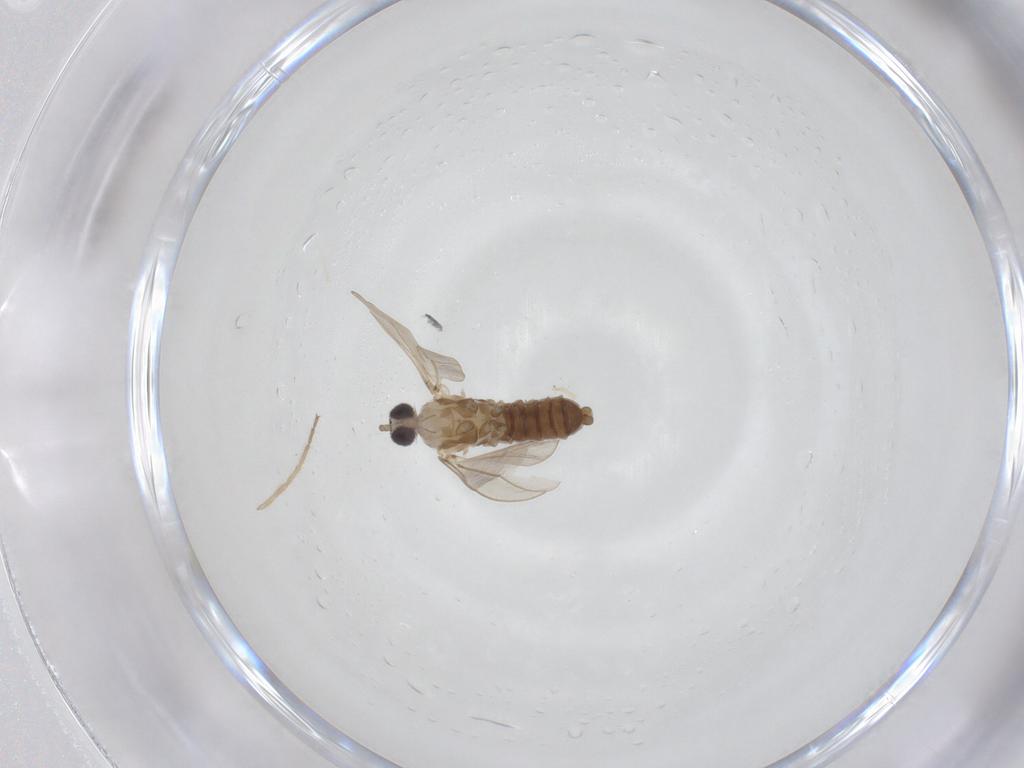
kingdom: Animalia
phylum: Arthropoda
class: Insecta
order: Diptera
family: Cecidomyiidae
